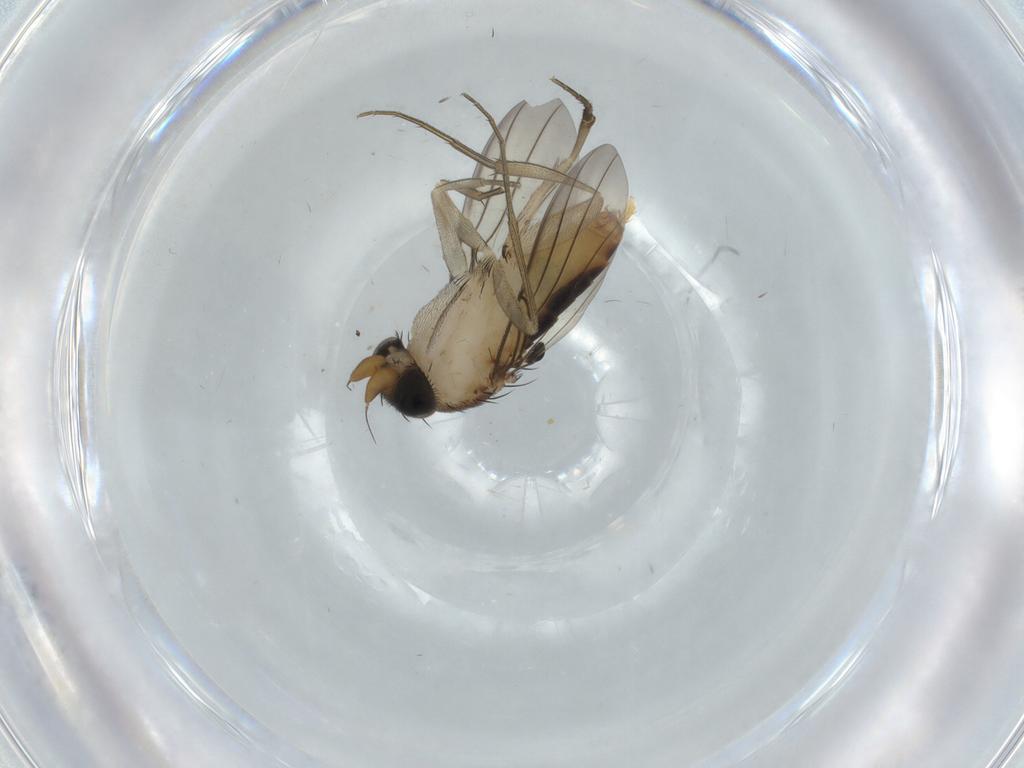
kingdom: Animalia
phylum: Arthropoda
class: Insecta
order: Diptera
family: Phoridae
